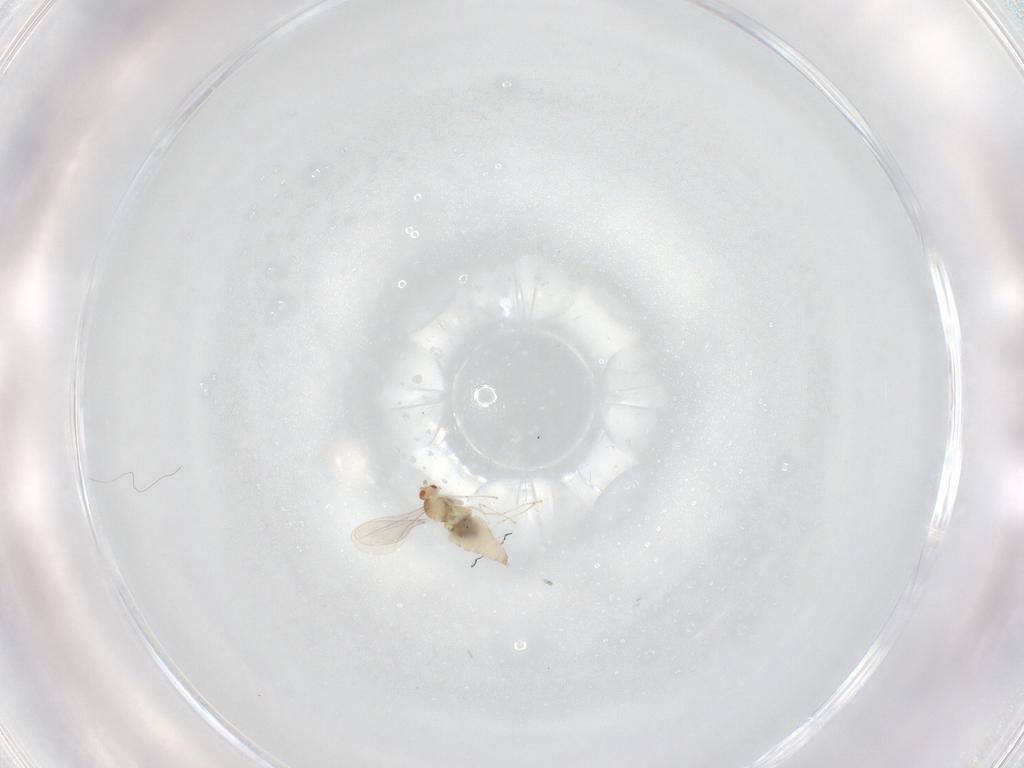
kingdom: Animalia
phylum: Arthropoda
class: Insecta
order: Diptera
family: Cecidomyiidae
